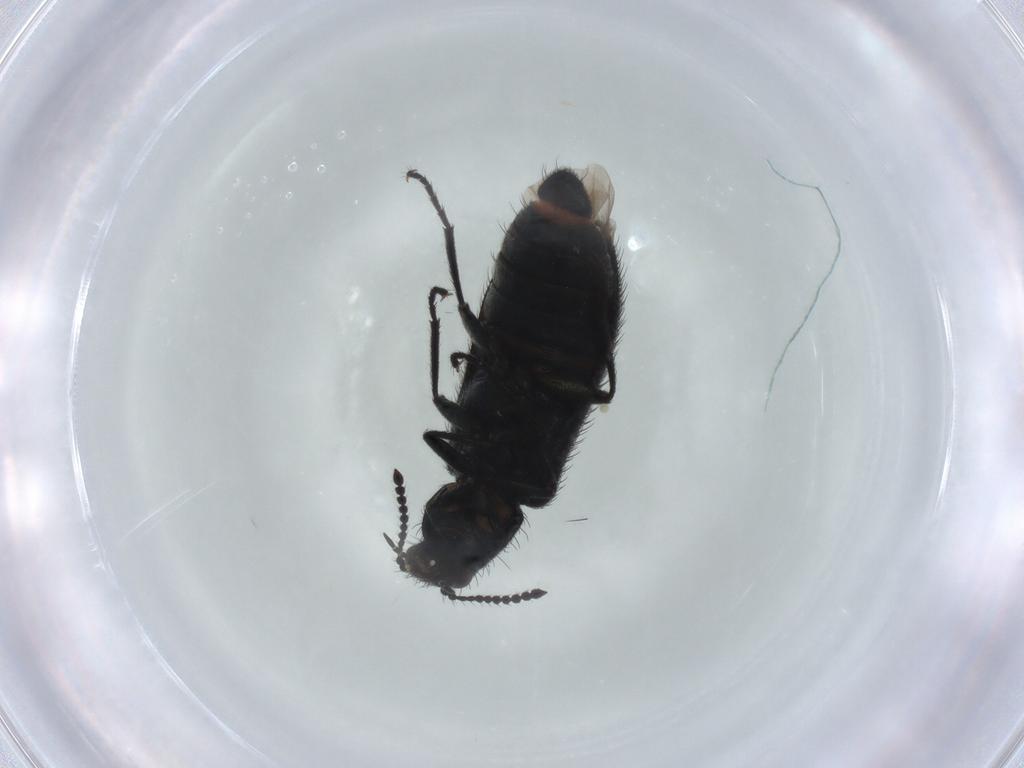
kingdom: Animalia
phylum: Arthropoda
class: Insecta
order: Coleoptera
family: Melyridae
